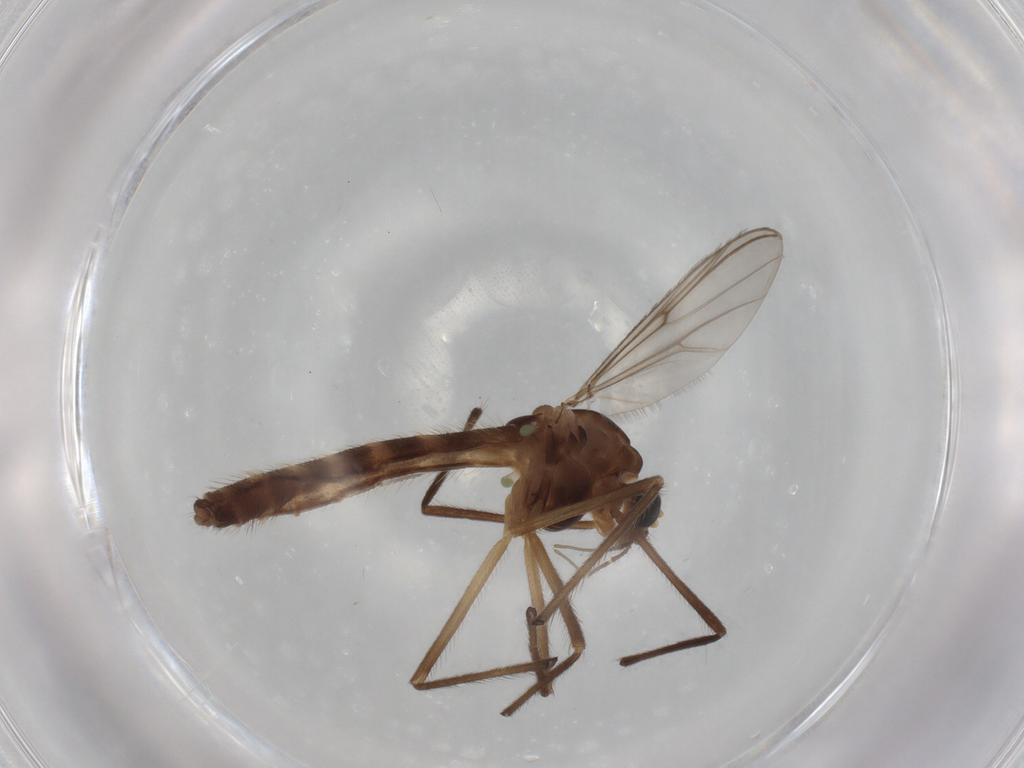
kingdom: Animalia
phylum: Arthropoda
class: Insecta
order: Diptera
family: Chironomidae
